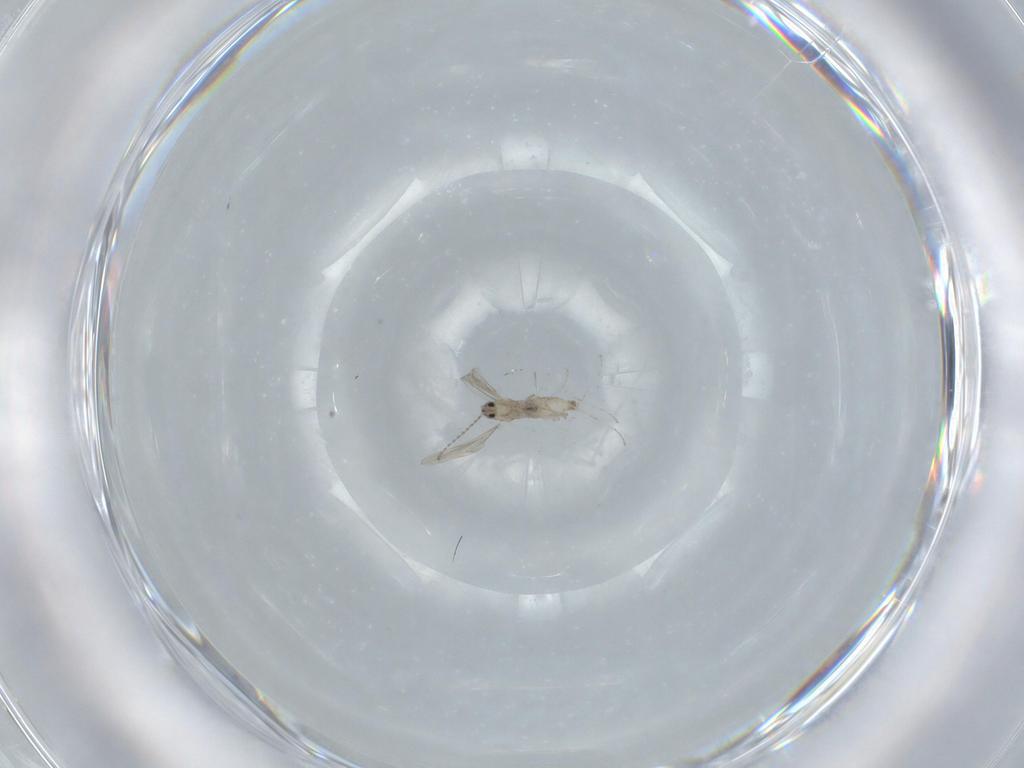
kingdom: Animalia
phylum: Arthropoda
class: Insecta
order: Diptera
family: Cecidomyiidae
